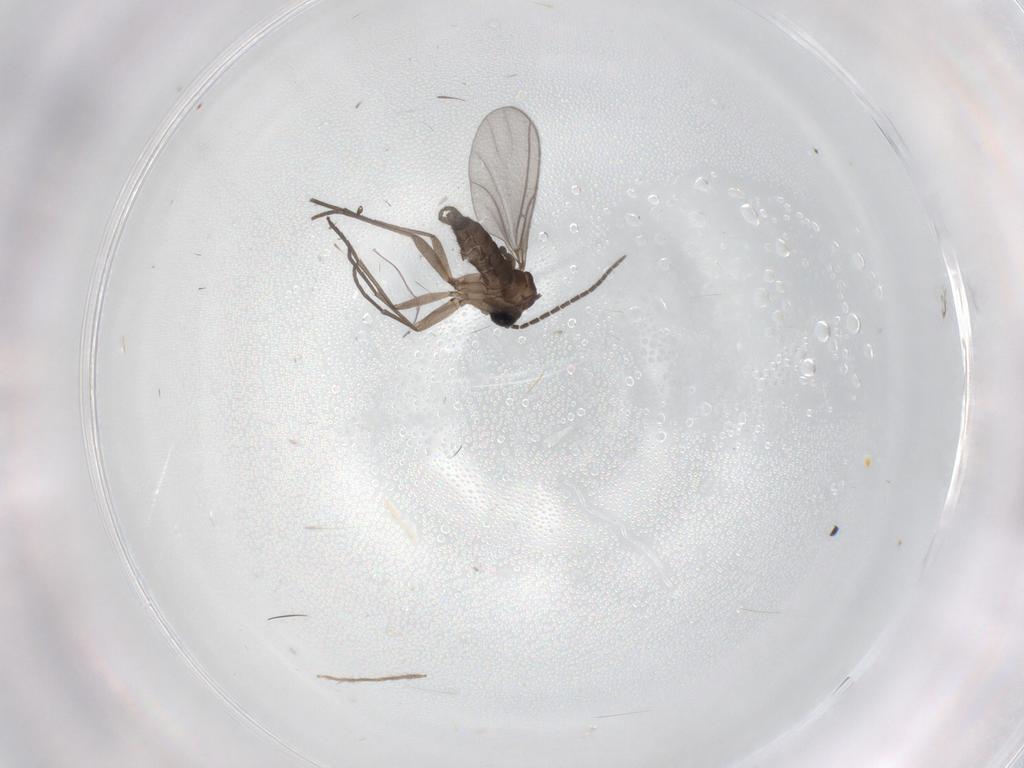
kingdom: Animalia
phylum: Arthropoda
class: Insecta
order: Diptera
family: Sciaridae
